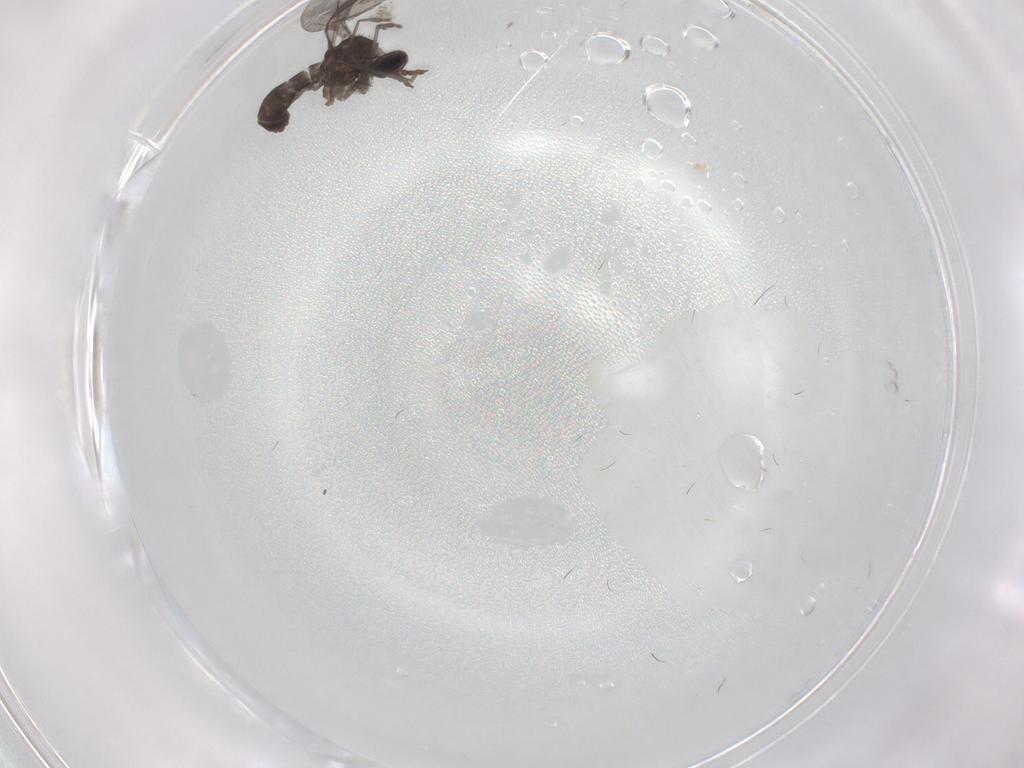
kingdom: Animalia
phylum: Arthropoda
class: Insecta
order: Diptera
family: Cecidomyiidae
